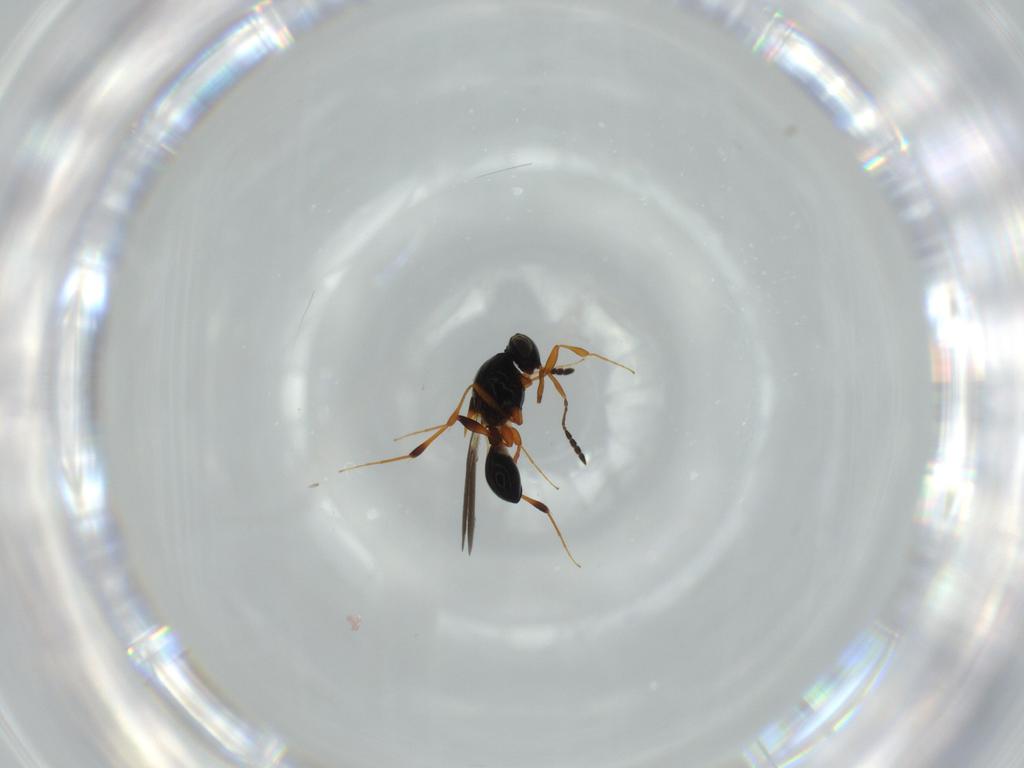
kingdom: Animalia
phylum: Arthropoda
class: Insecta
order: Hymenoptera
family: Platygastridae
